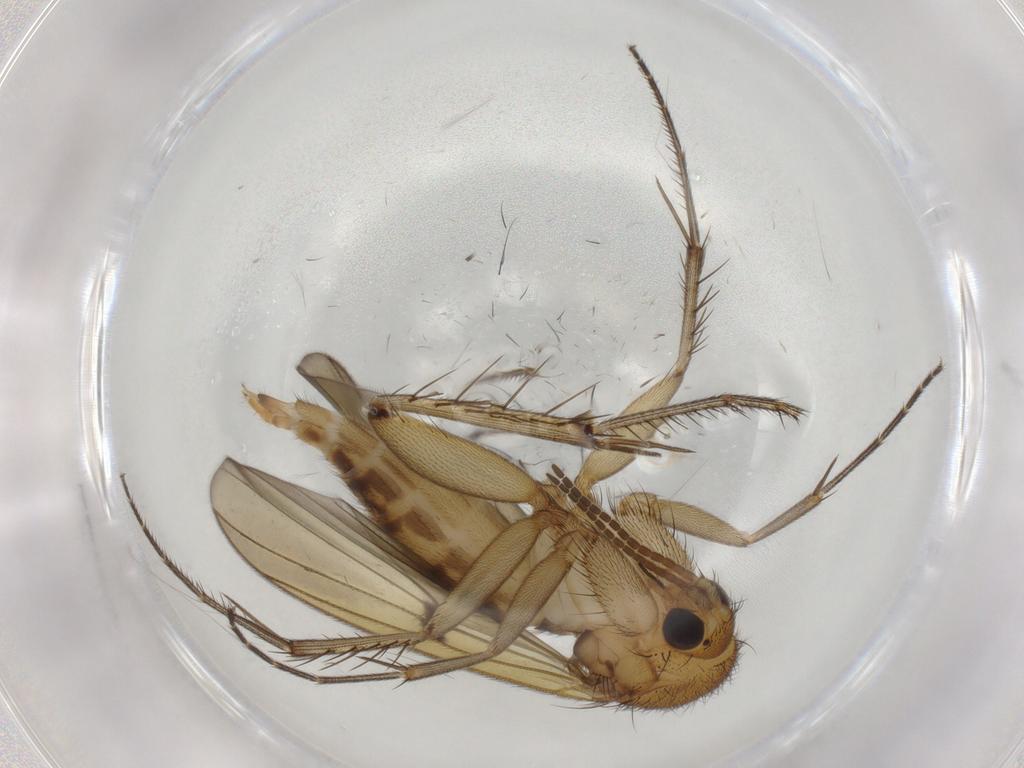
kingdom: Animalia
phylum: Arthropoda
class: Insecta
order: Diptera
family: Mycetophilidae
